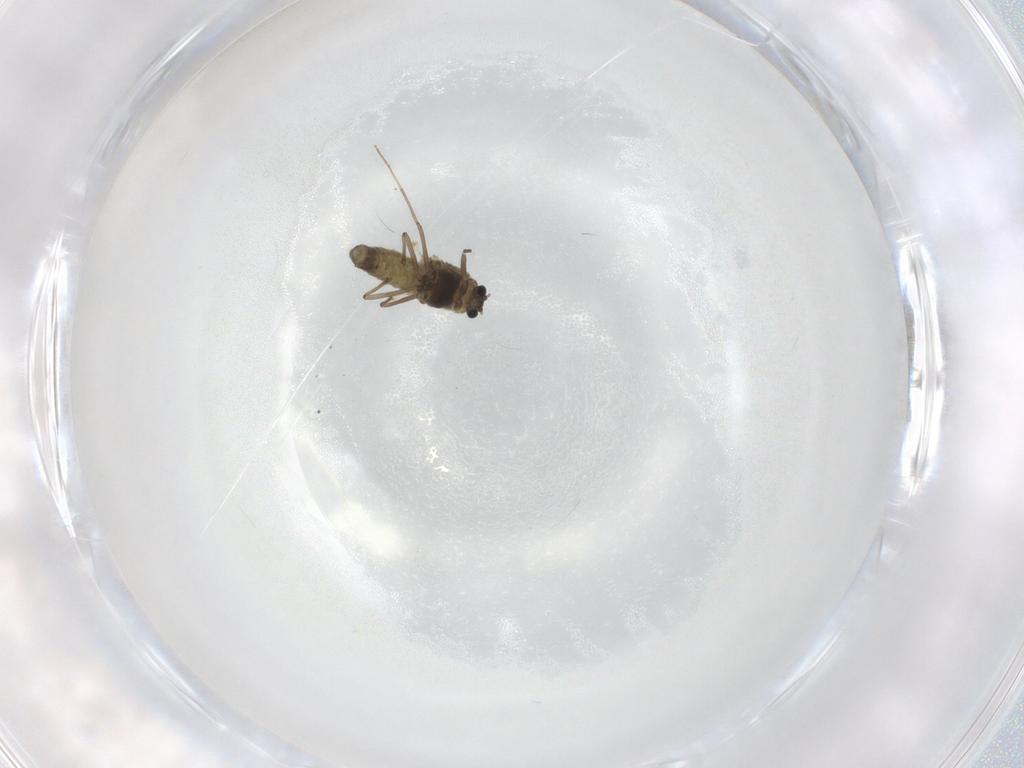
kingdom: Animalia
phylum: Arthropoda
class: Insecta
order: Diptera
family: Chironomidae
